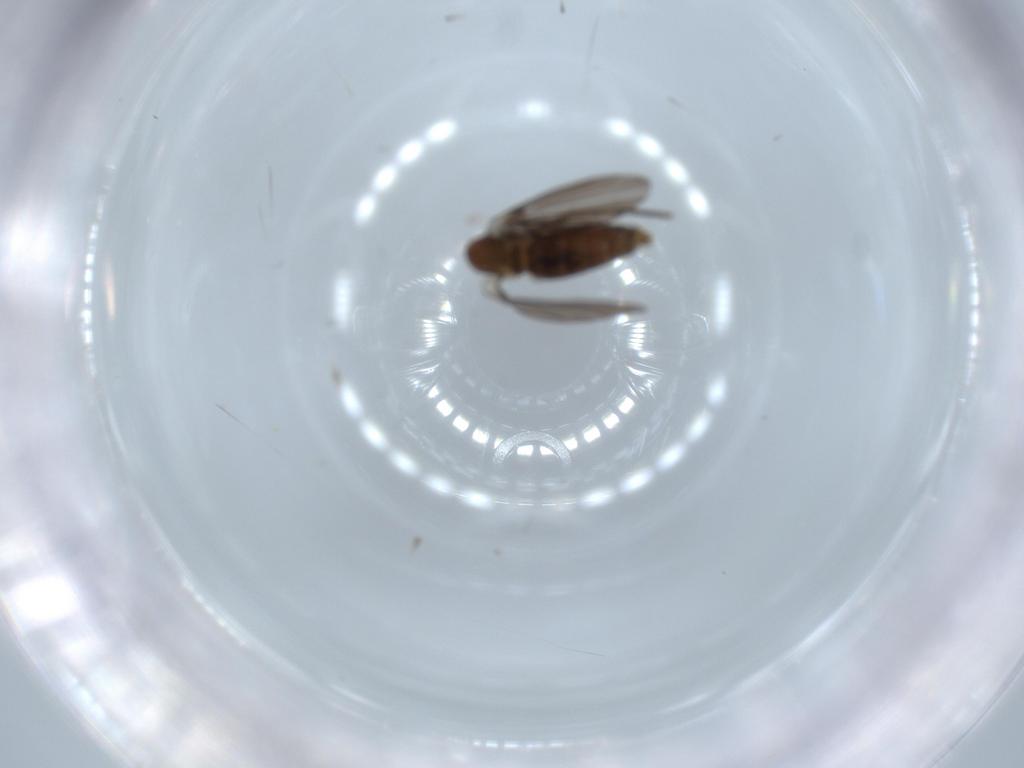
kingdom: Animalia
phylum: Arthropoda
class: Insecta
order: Diptera
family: Psychodidae
